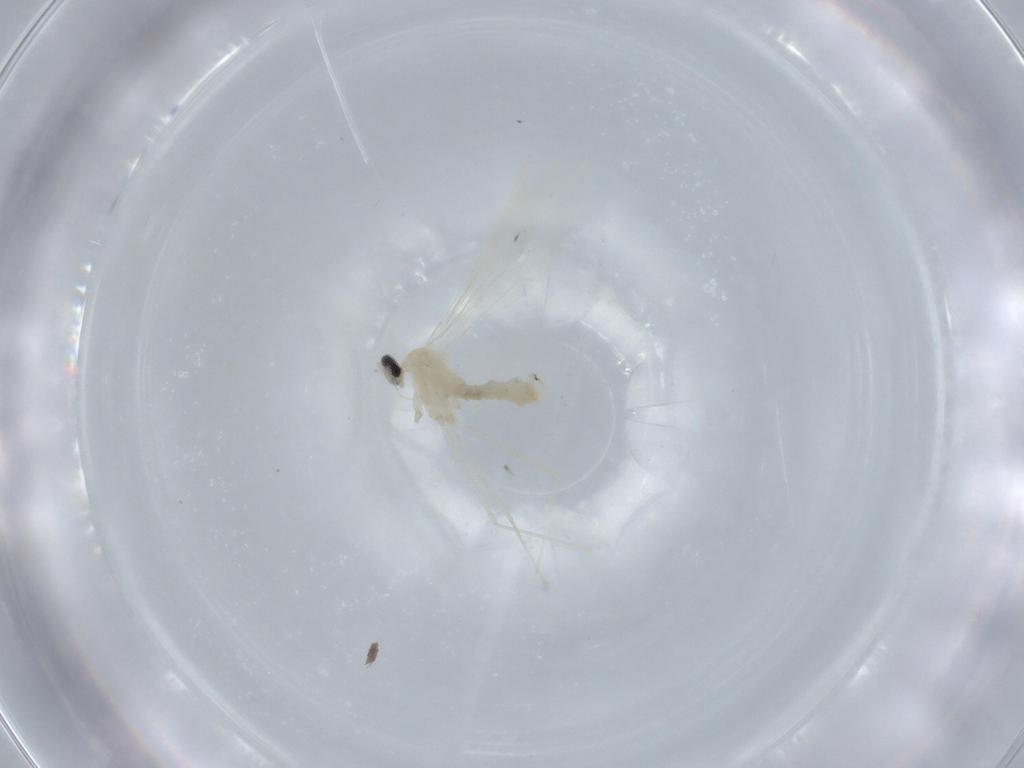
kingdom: Animalia
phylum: Arthropoda
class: Insecta
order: Diptera
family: Cecidomyiidae
